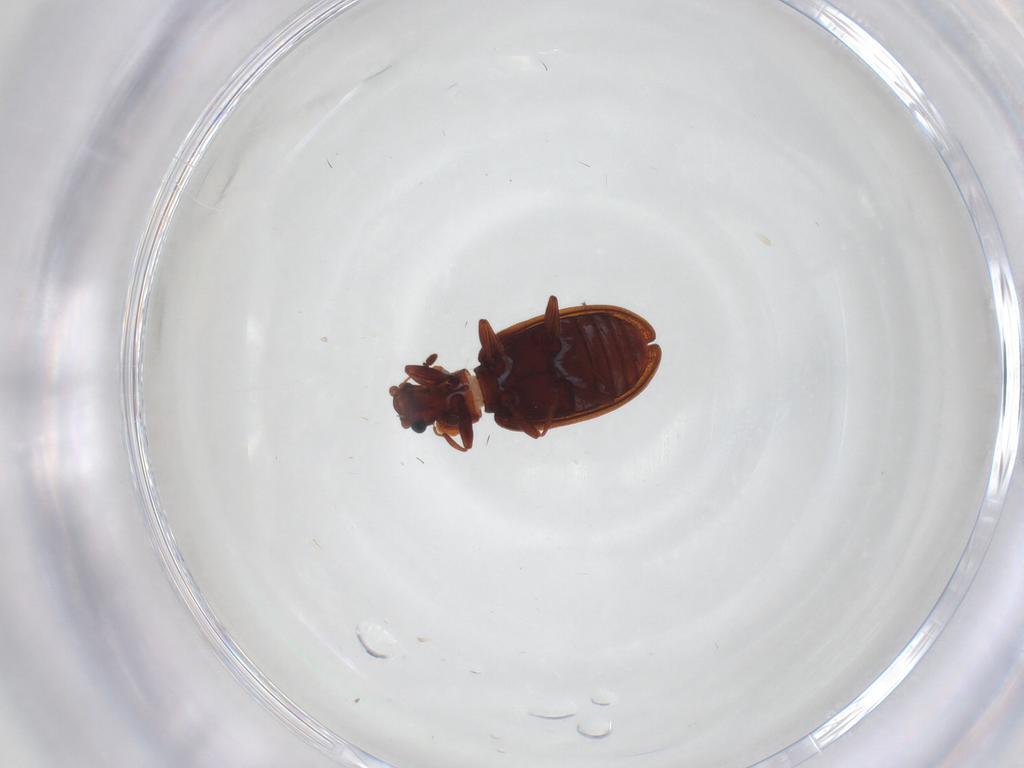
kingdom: Animalia
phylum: Arthropoda
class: Insecta
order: Coleoptera
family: Latridiidae
